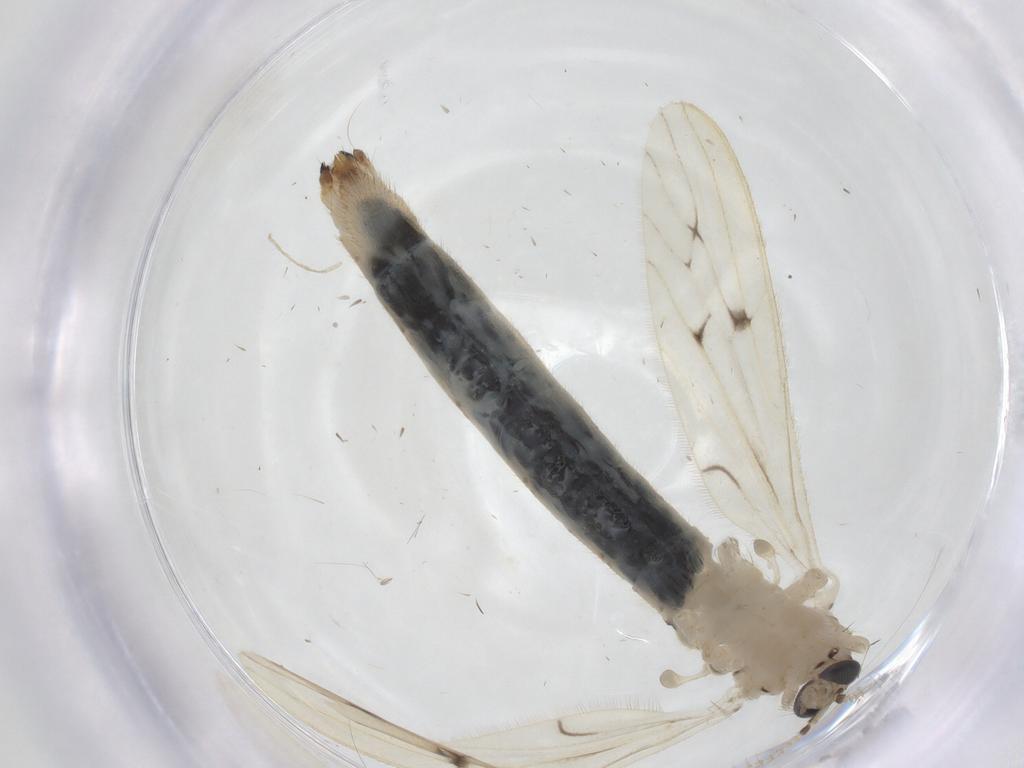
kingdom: Animalia
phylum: Arthropoda
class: Insecta
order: Diptera
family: Limoniidae
